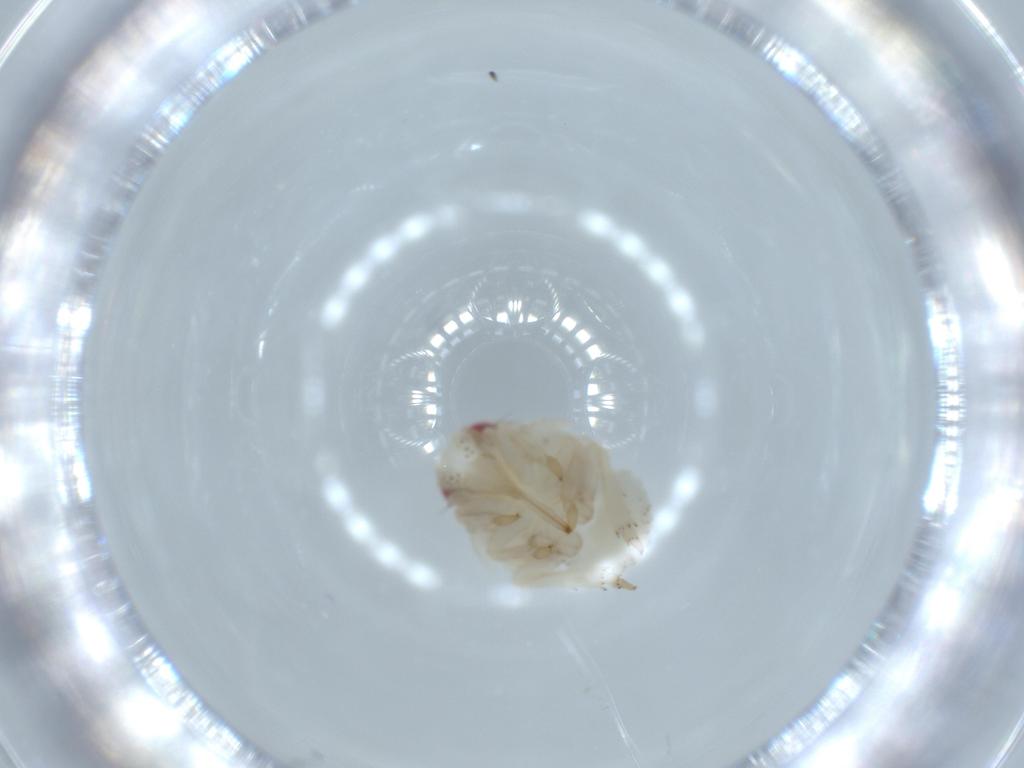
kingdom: Animalia
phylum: Arthropoda
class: Insecta
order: Hemiptera
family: Acanaloniidae
